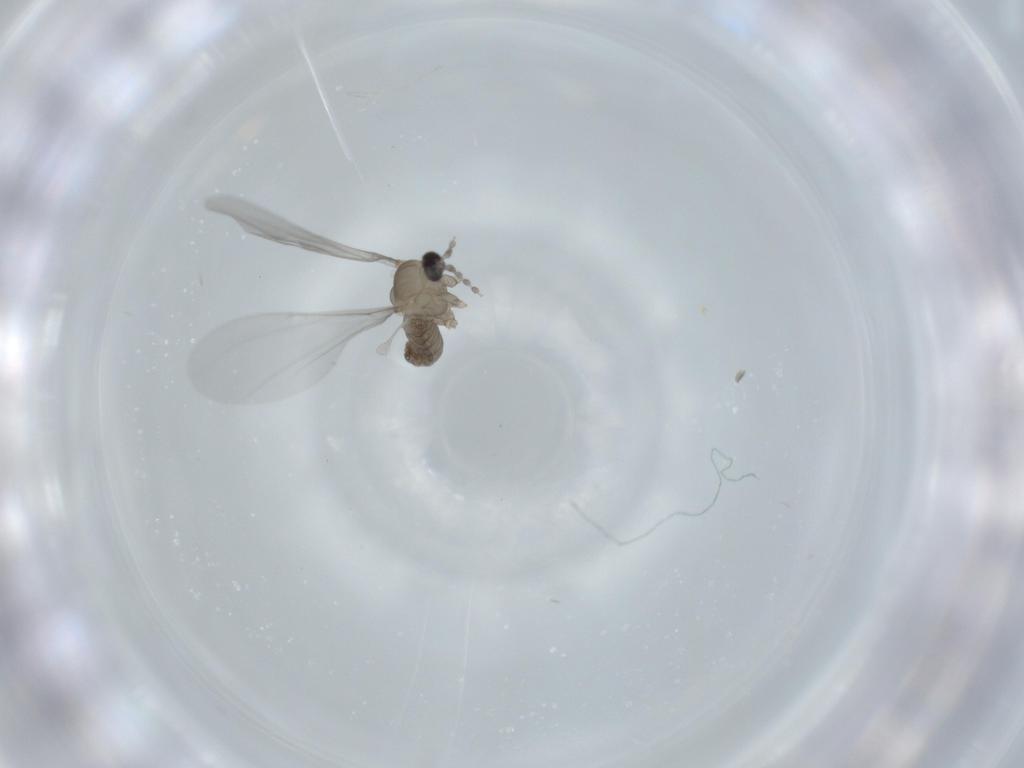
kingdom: Animalia
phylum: Arthropoda
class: Insecta
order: Diptera
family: Cecidomyiidae
